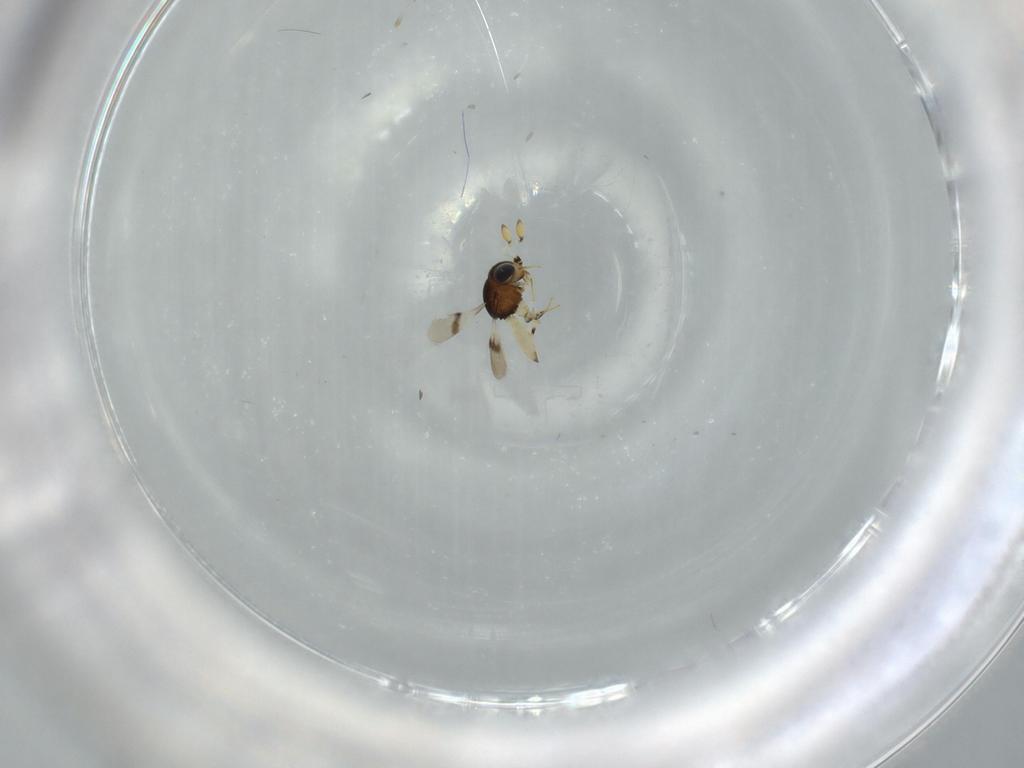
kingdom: Animalia
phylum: Arthropoda
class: Insecta
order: Hymenoptera
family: Scelionidae
